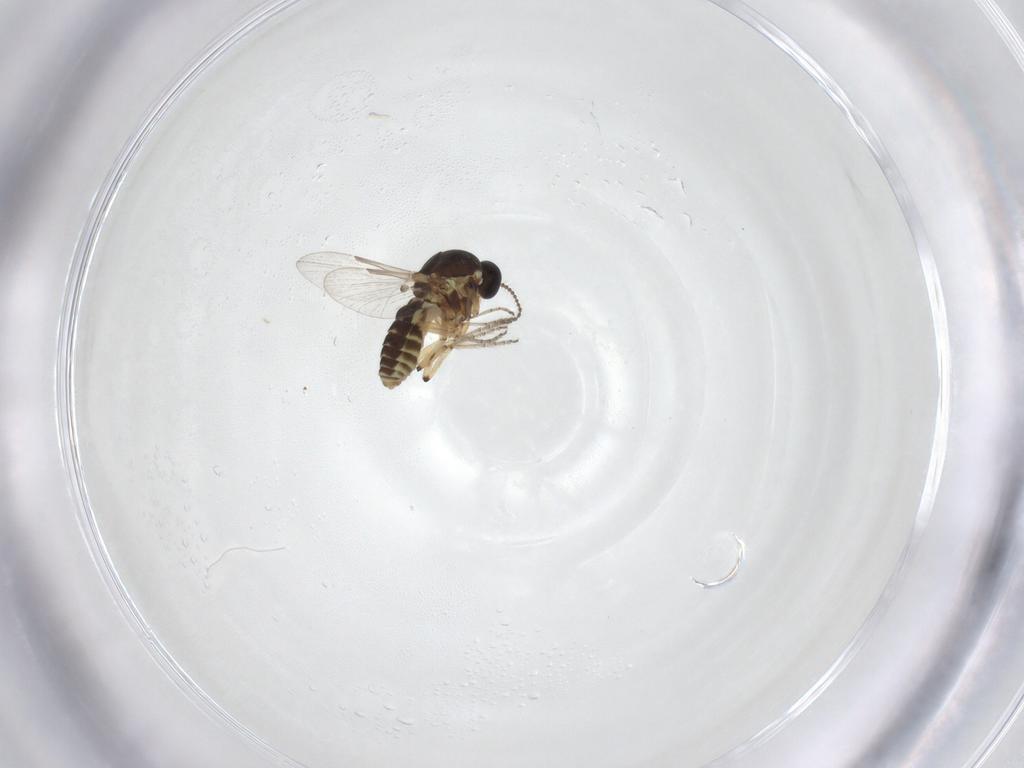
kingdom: Animalia
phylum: Arthropoda
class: Insecta
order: Diptera
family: Ceratopogonidae
